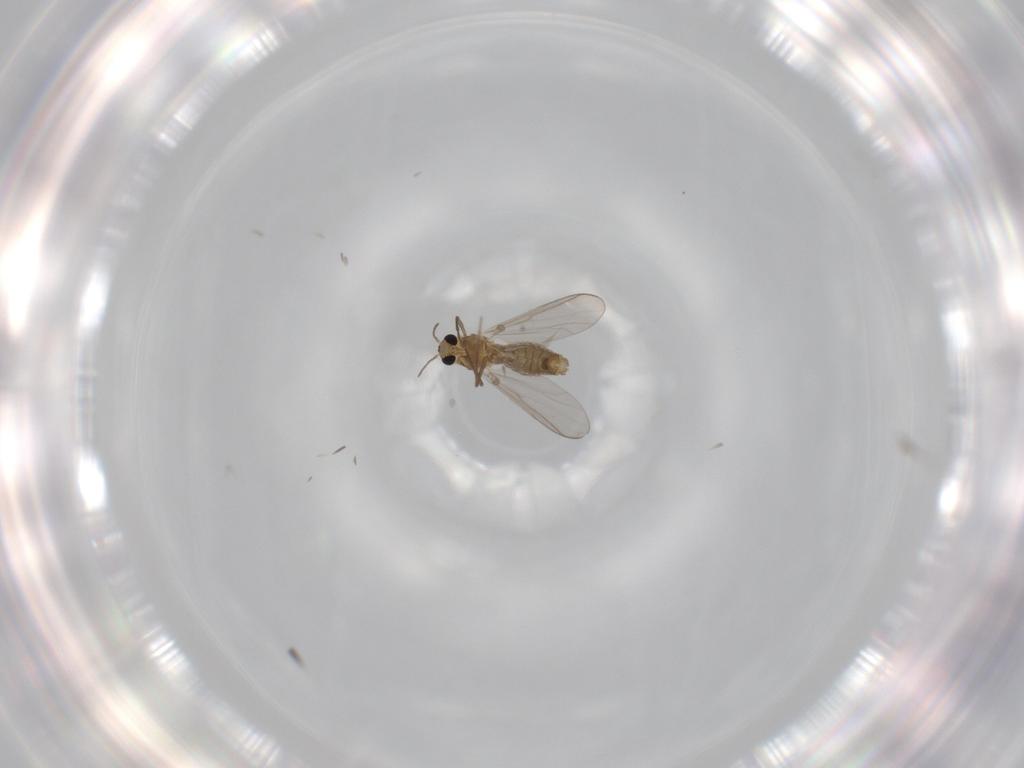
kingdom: Animalia
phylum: Arthropoda
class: Insecta
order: Diptera
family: Chironomidae
